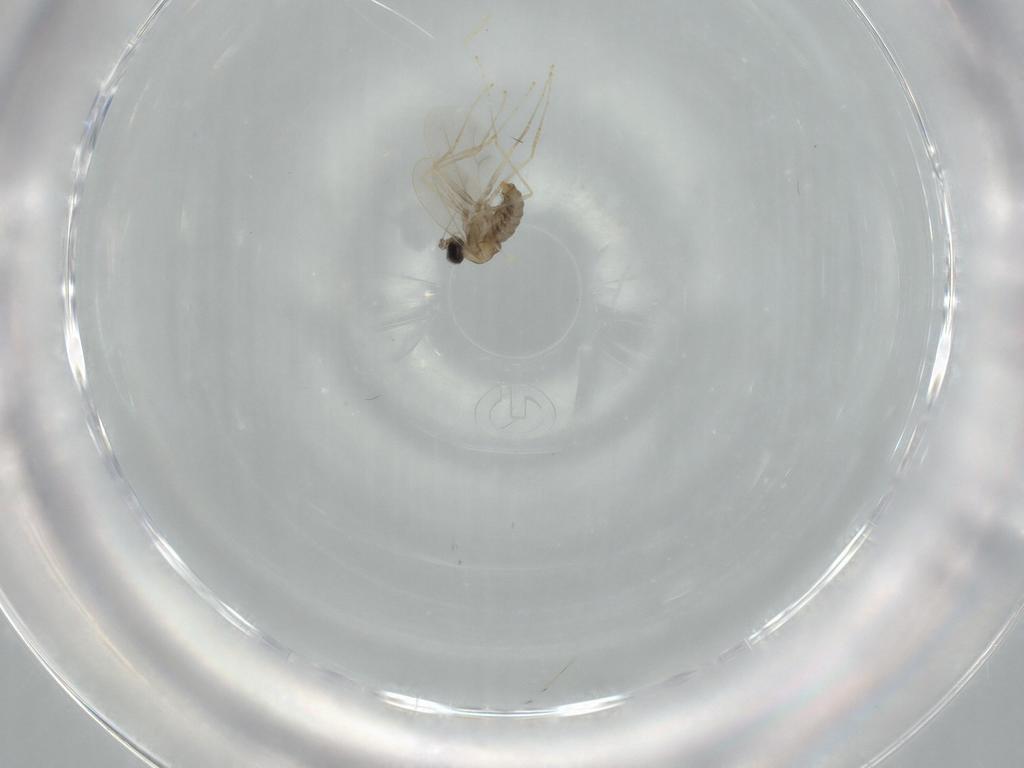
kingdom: Animalia
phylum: Arthropoda
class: Insecta
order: Diptera
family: Cecidomyiidae
